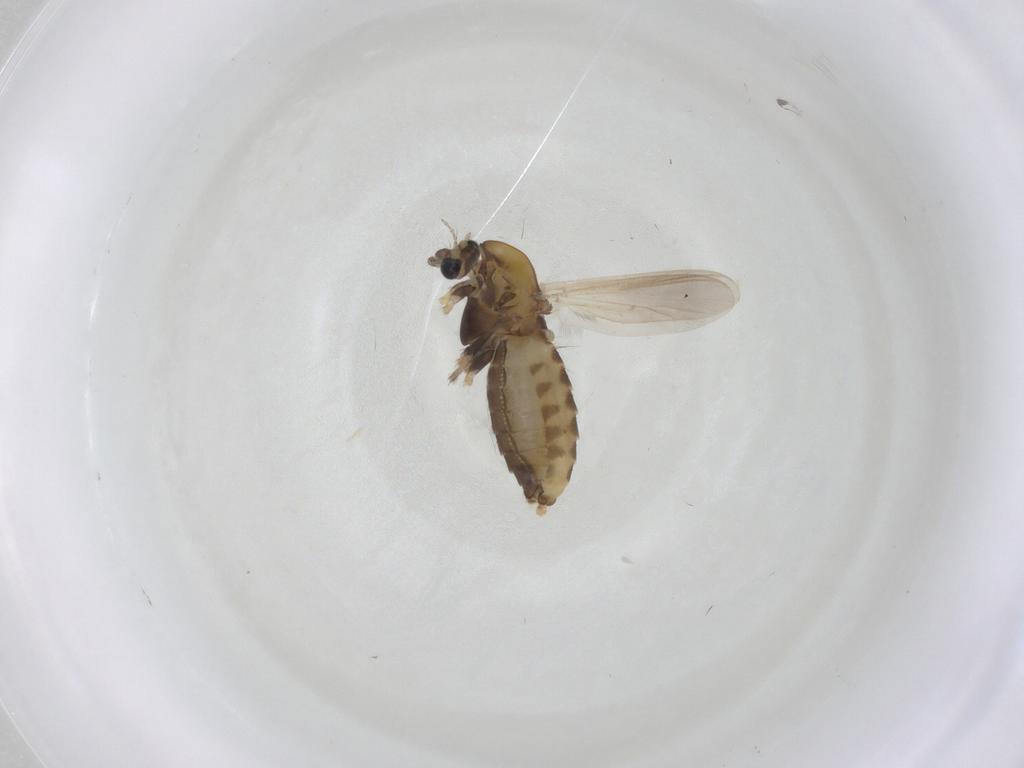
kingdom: Animalia
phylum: Arthropoda
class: Insecta
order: Diptera
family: Chironomidae
